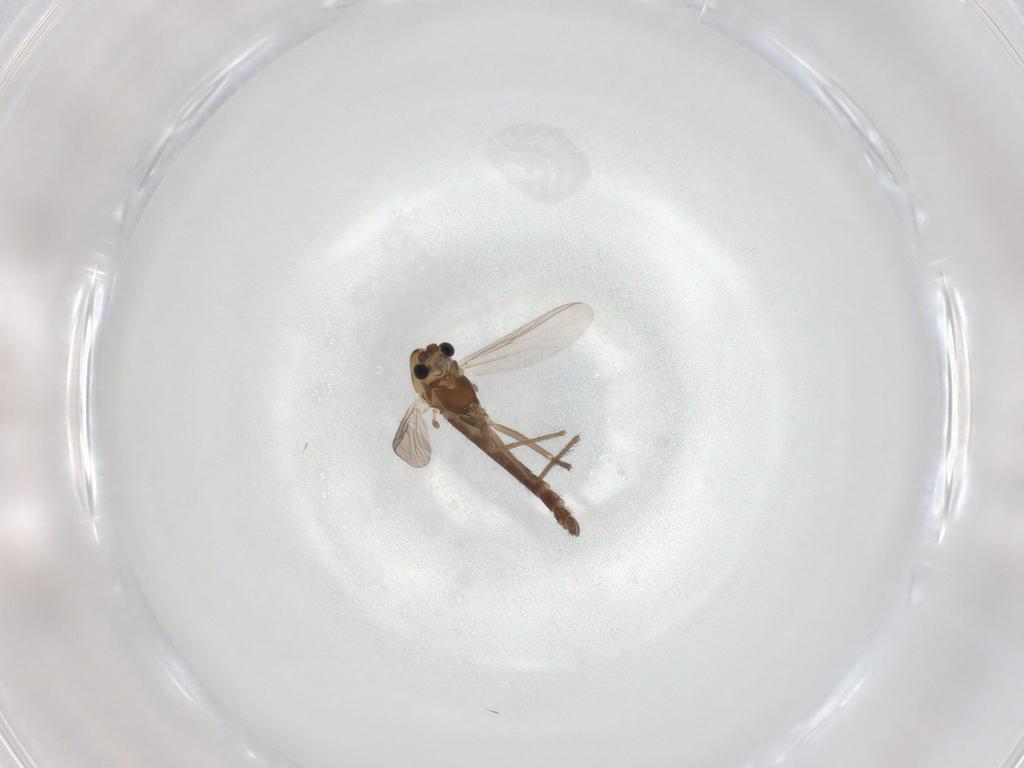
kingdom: Animalia
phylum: Arthropoda
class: Insecta
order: Diptera
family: Chironomidae
